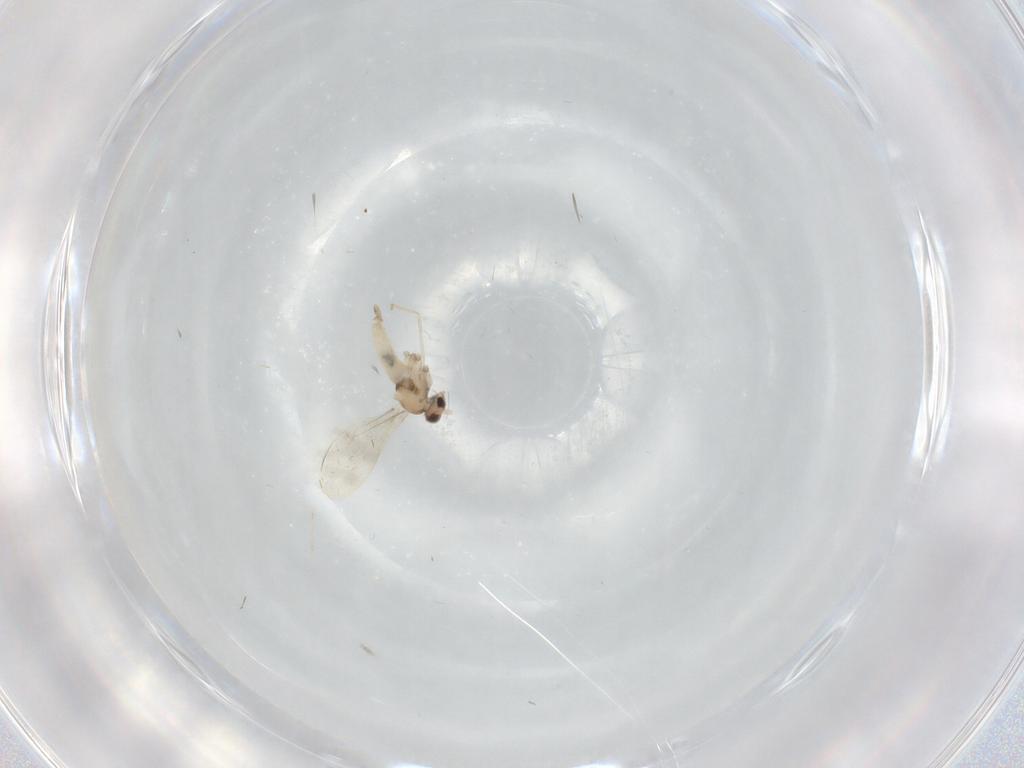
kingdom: Animalia
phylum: Arthropoda
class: Insecta
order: Diptera
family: Cecidomyiidae
